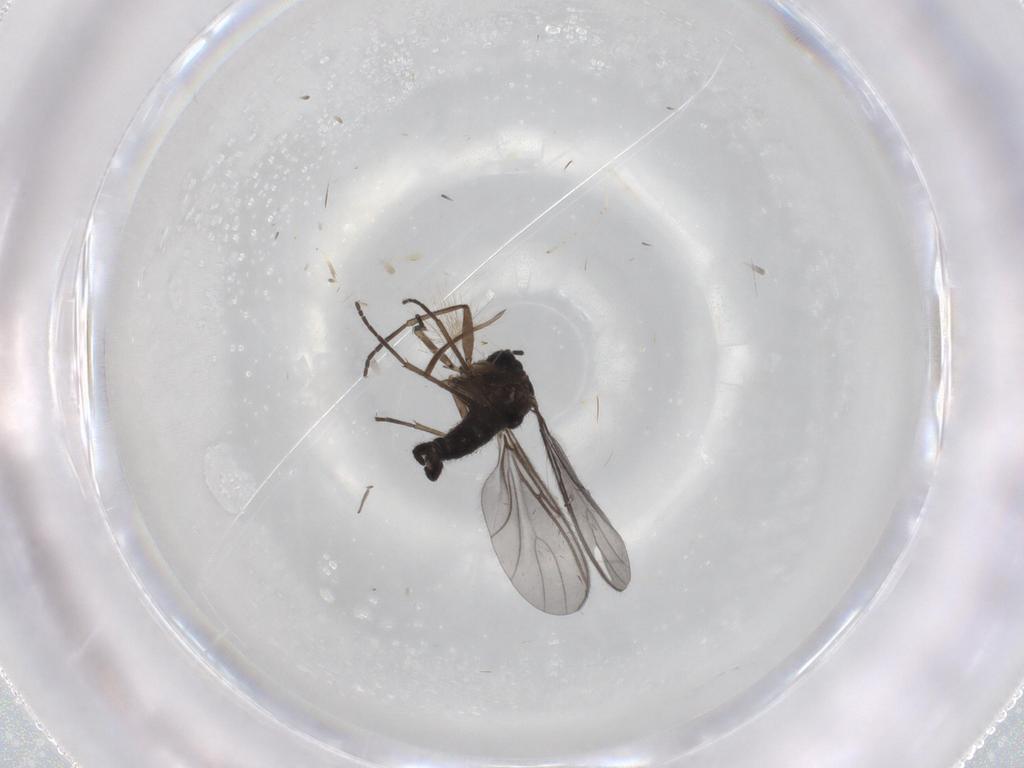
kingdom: Animalia
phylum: Arthropoda
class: Insecta
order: Diptera
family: Sciaridae
